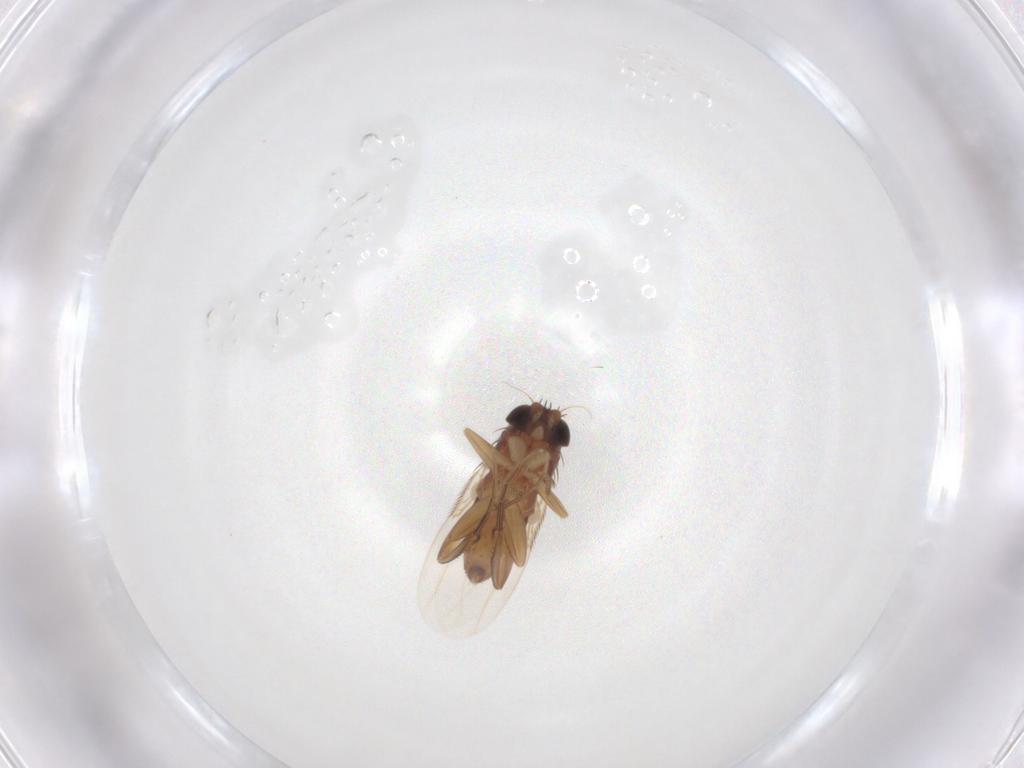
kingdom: Animalia
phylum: Arthropoda
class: Insecta
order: Diptera
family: Phoridae
